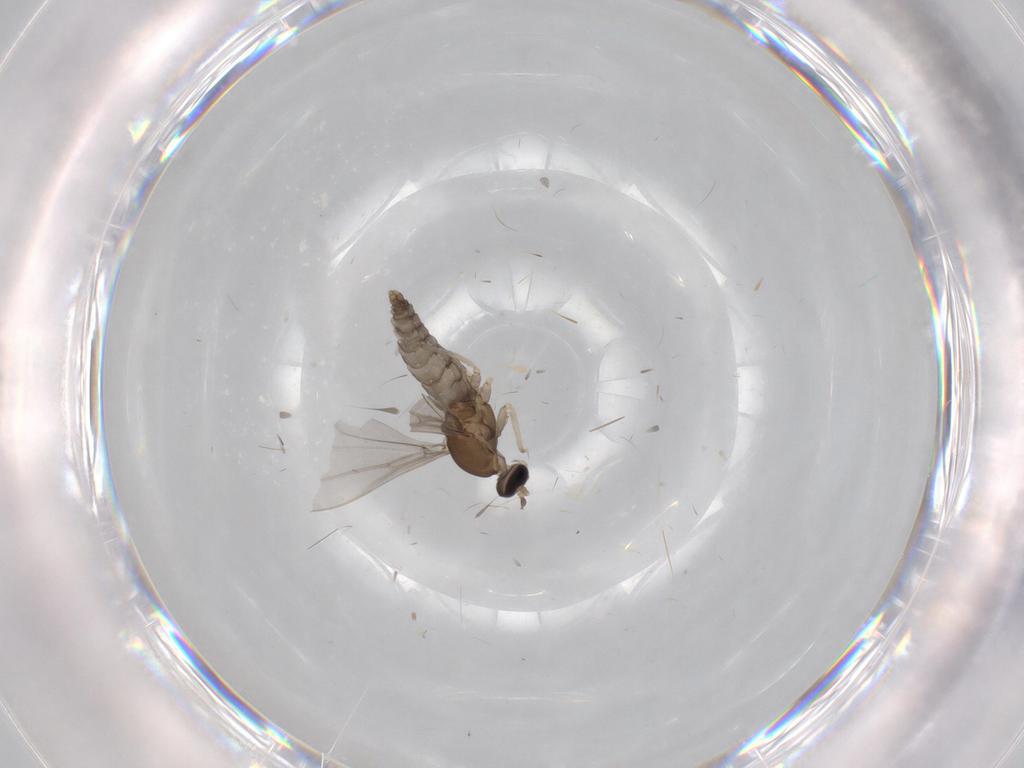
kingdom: Animalia
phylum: Arthropoda
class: Insecta
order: Diptera
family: Cecidomyiidae
